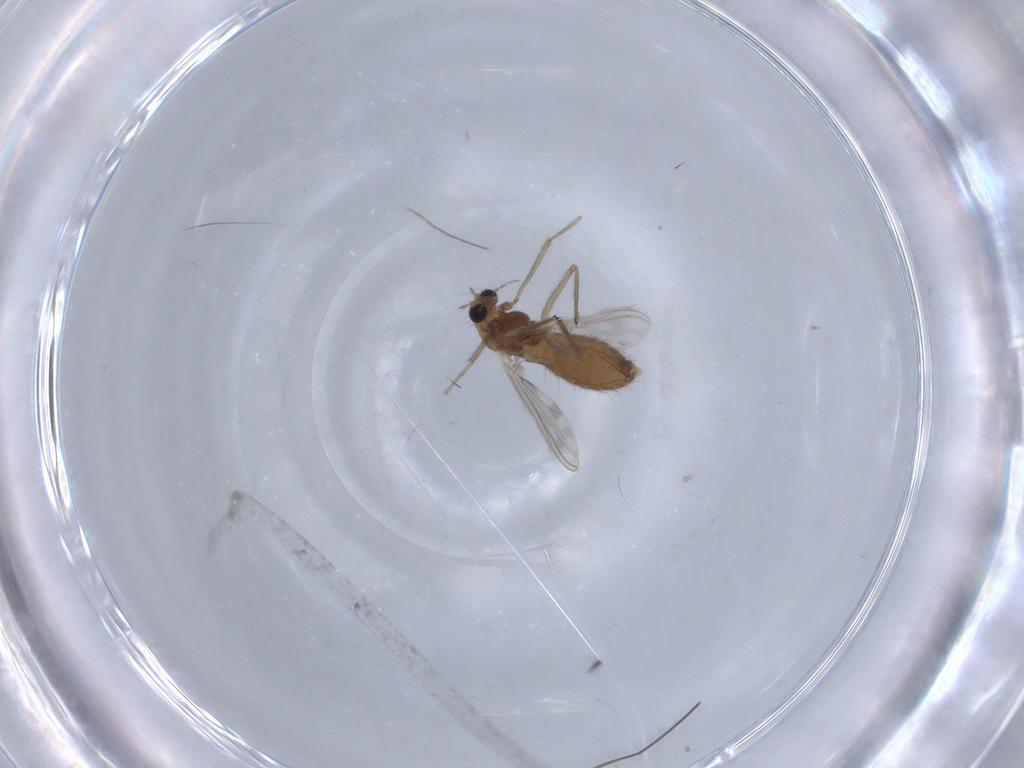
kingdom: Animalia
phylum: Arthropoda
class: Insecta
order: Diptera
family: Chironomidae
